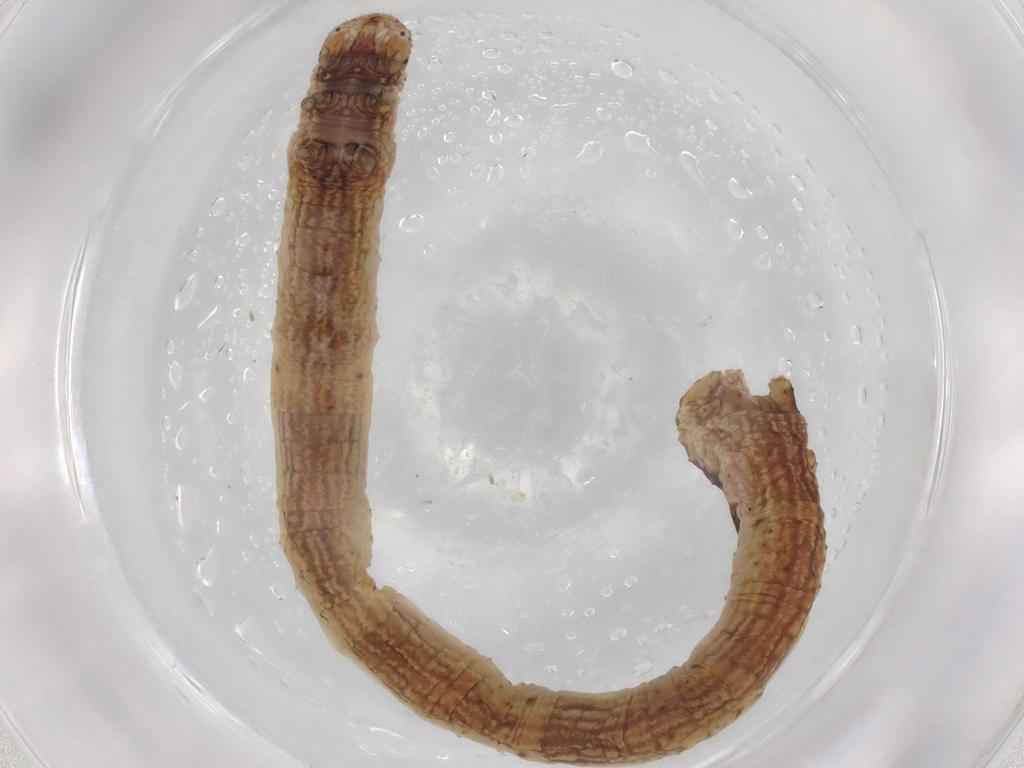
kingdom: Animalia
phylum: Arthropoda
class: Insecta
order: Lepidoptera
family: Geometridae
